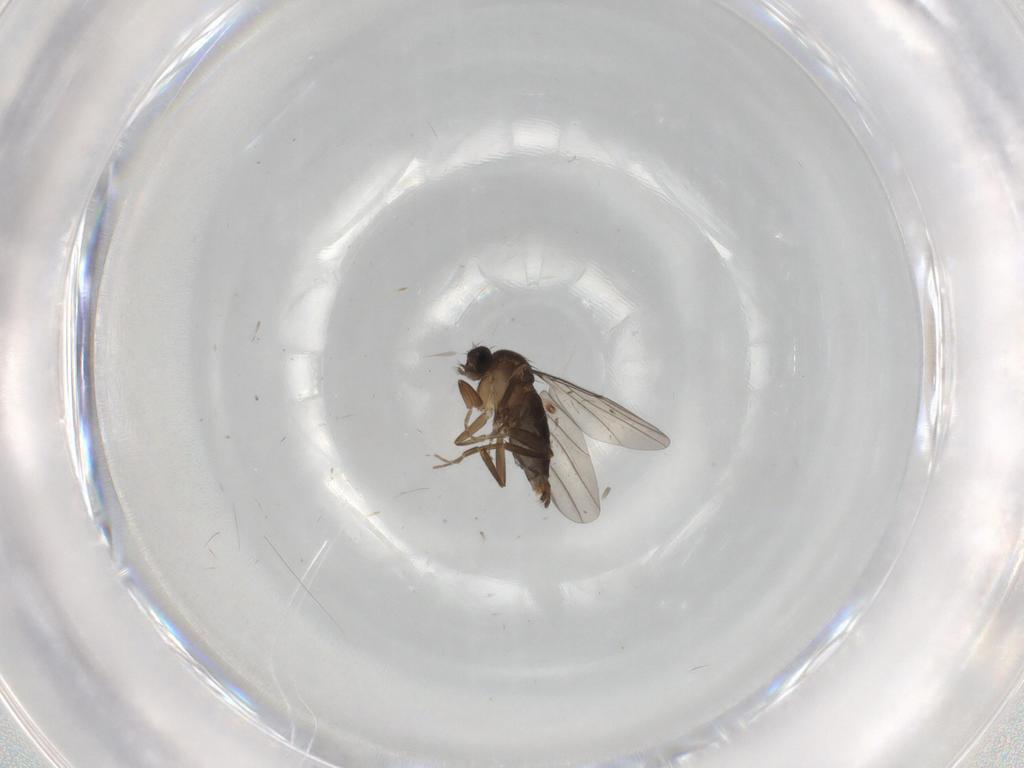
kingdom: Animalia
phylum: Arthropoda
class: Insecta
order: Diptera
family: Phoridae
